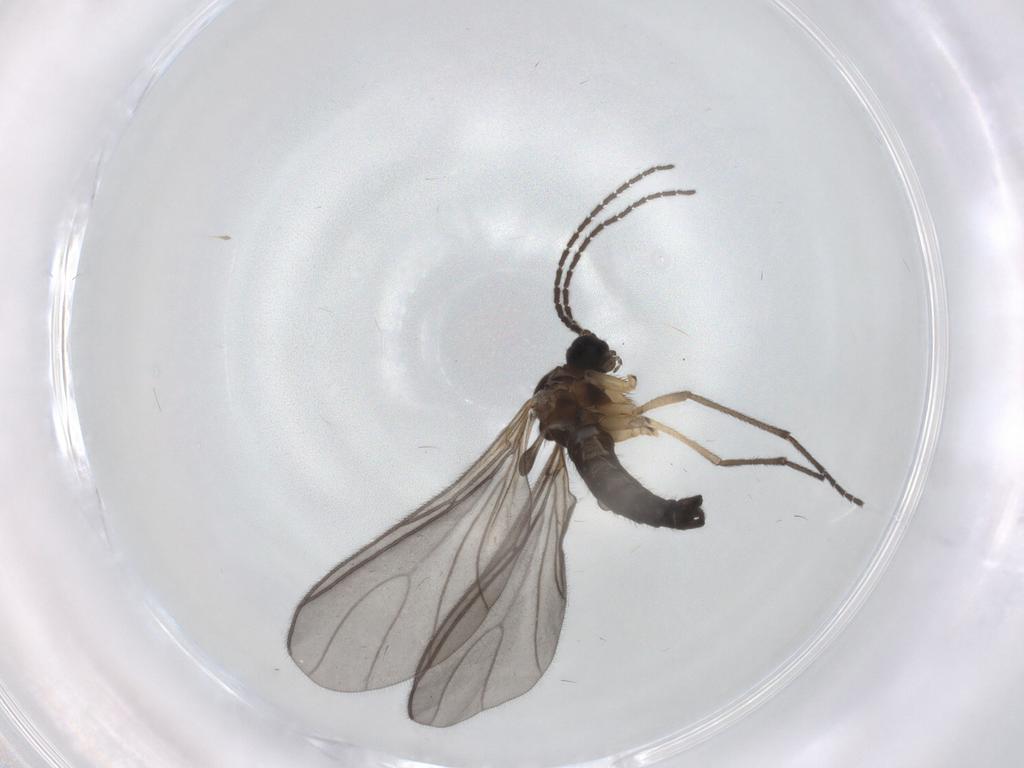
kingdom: Animalia
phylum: Arthropoda
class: Insecta
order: Diptera
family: Sciaridae
